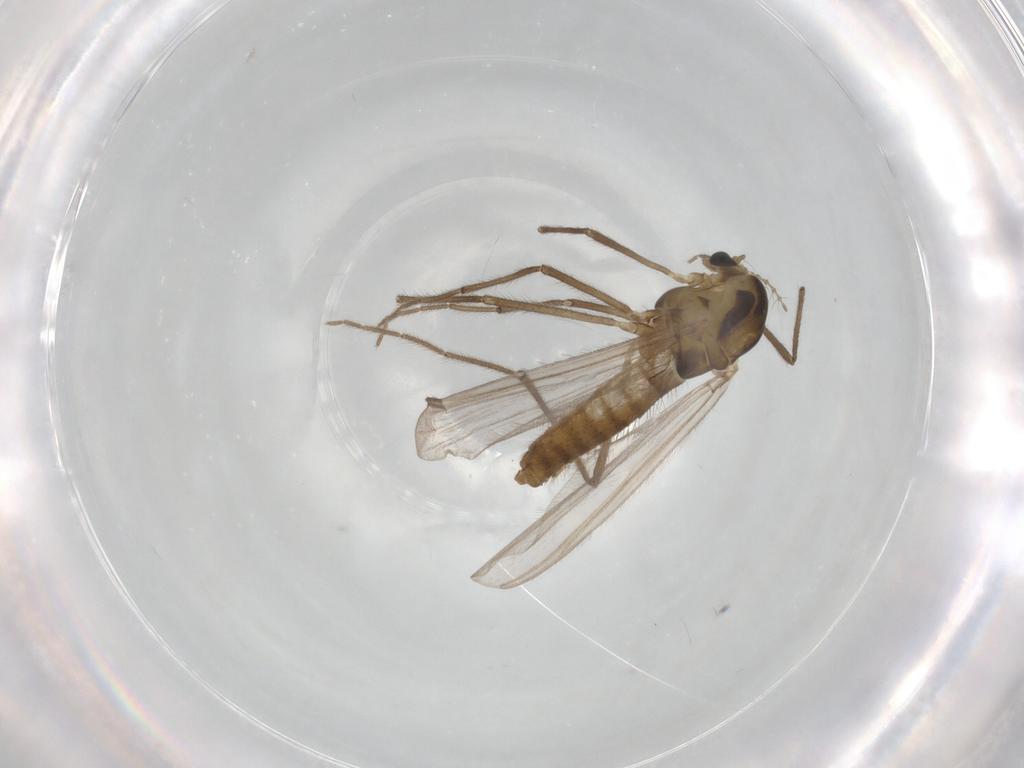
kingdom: Animalia
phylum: Arthropoda
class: Insecta
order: Diptera
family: Chironomidae
